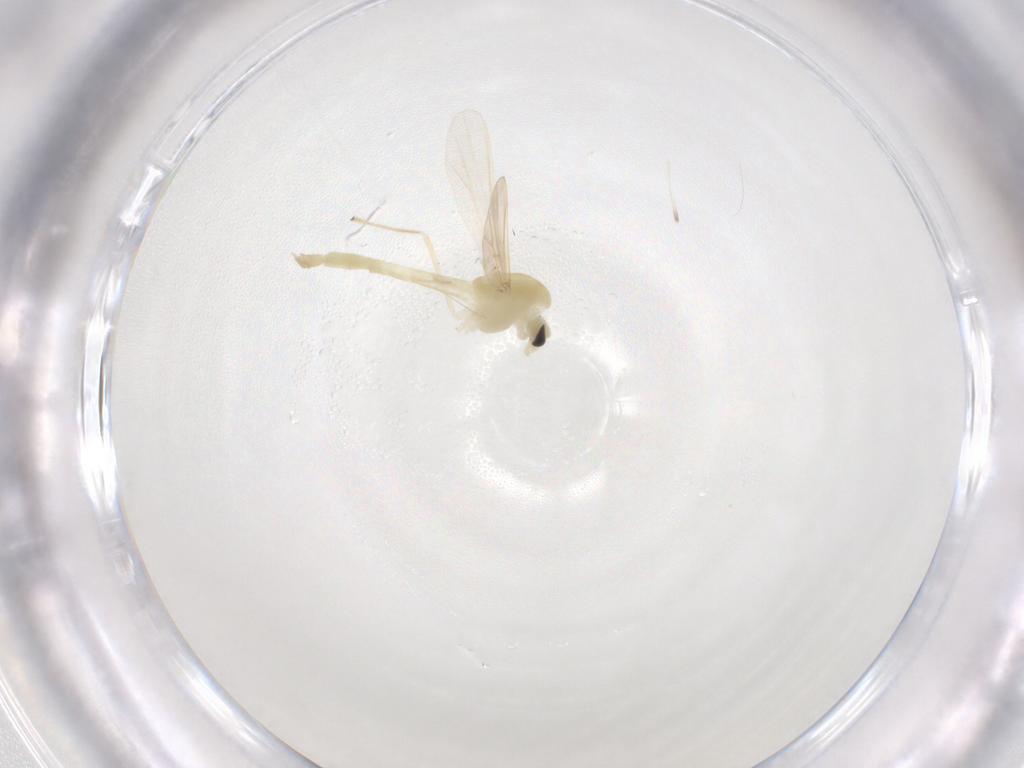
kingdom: Animalia
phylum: Arthropoda
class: Insecta
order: Diptera
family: Chironomidae
